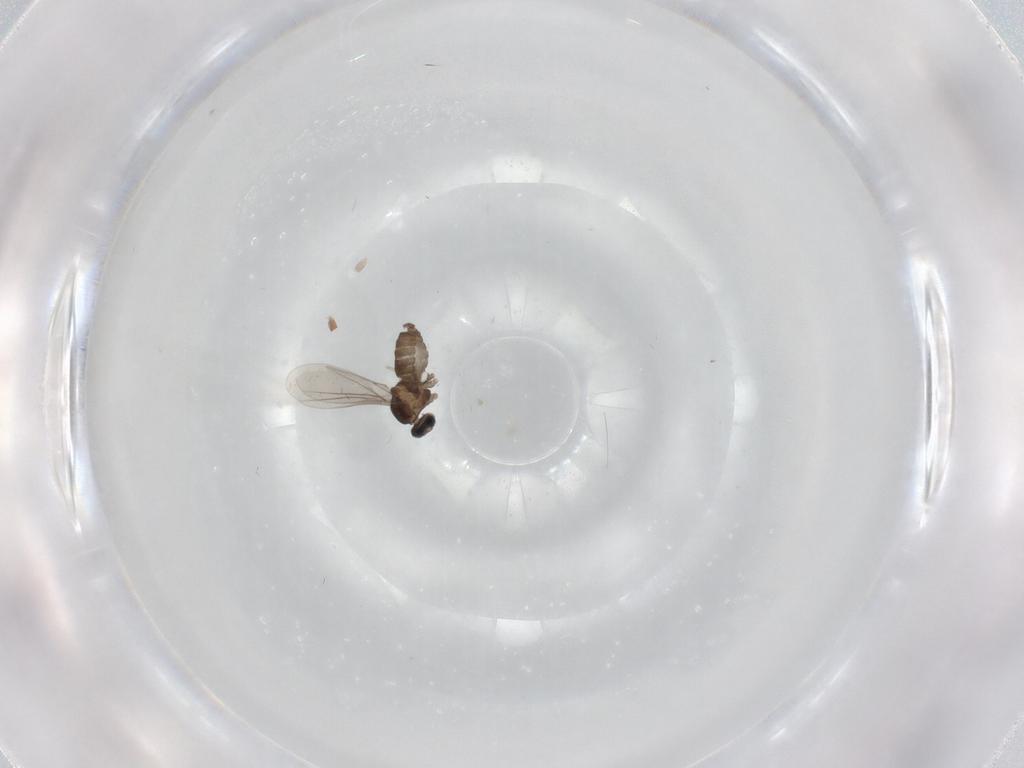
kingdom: Animalia
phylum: Arthropoda
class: Insecta
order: Diptera
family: Cecidomyiidae
